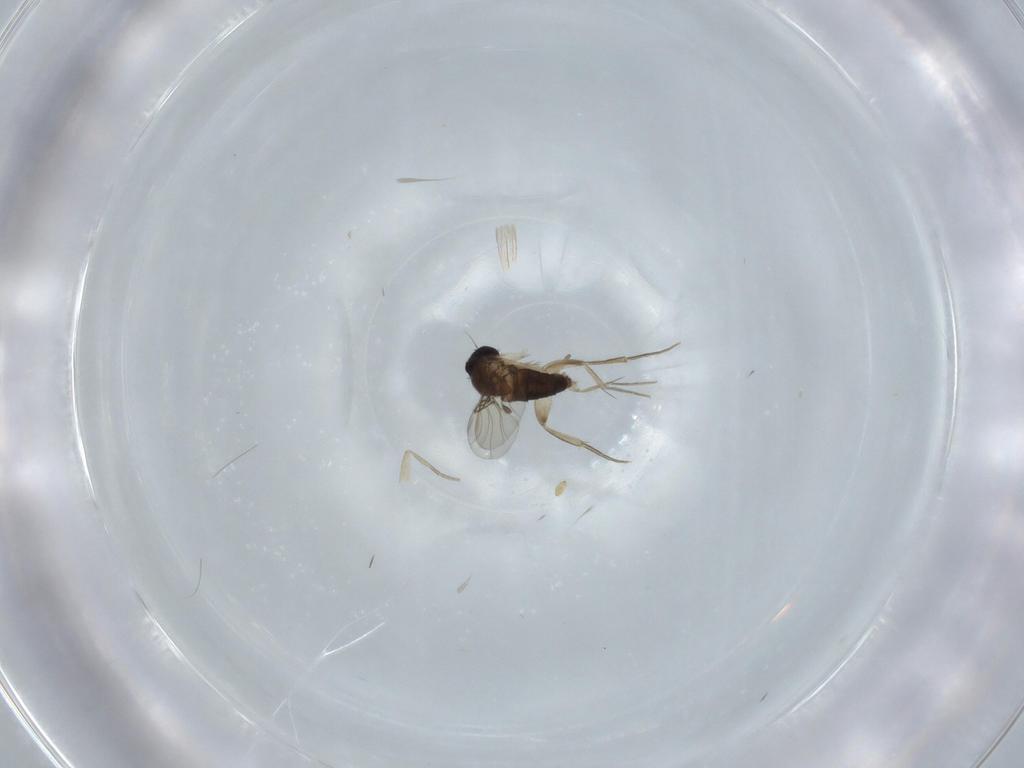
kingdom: Animalia
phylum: Arthropoda
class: Insecta
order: Diptera
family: Phoridae
